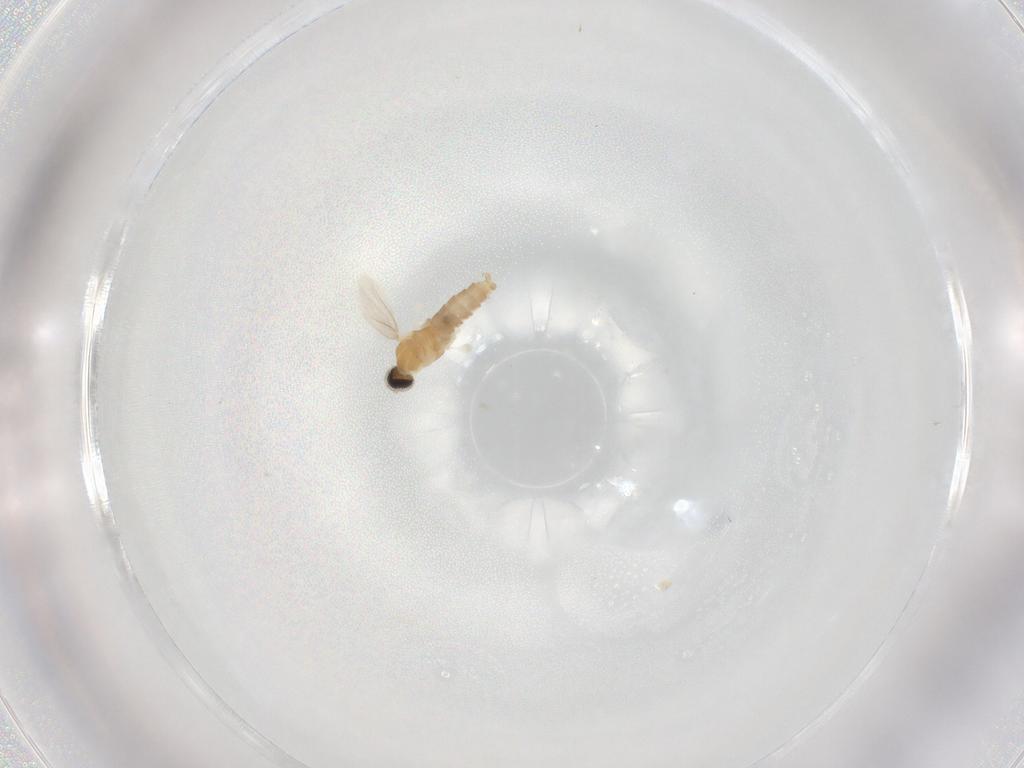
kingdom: Animalia
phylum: Arthropoda
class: Insecta
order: Diptera
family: Cecidomyiidae
